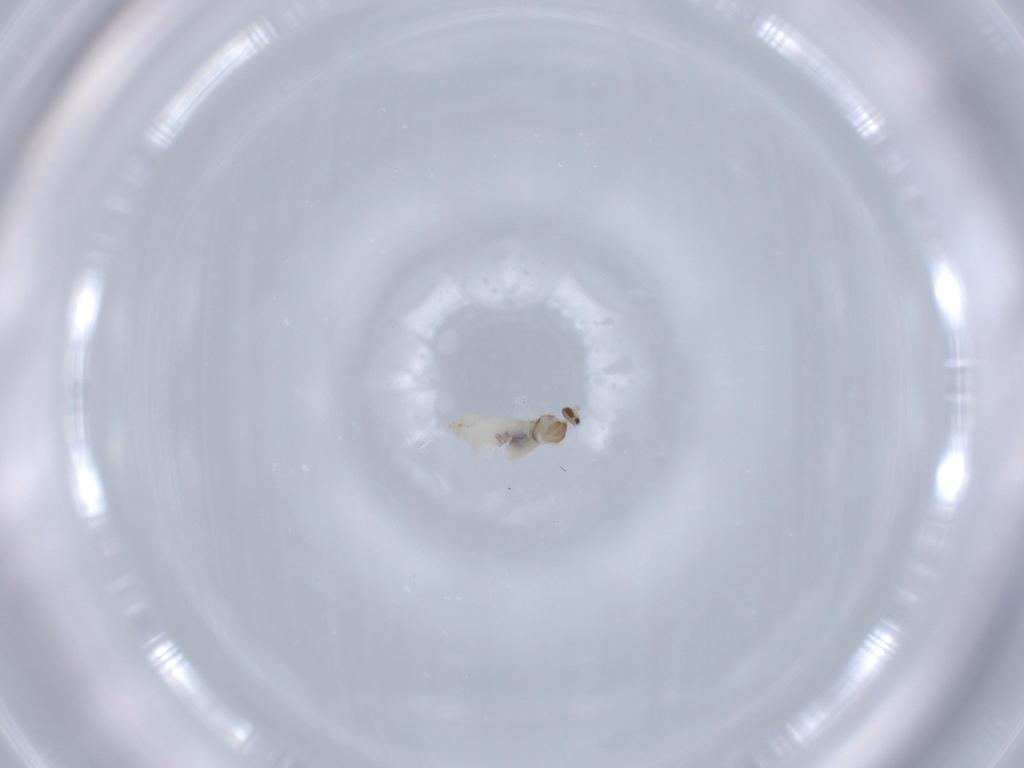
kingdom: Animalia
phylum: Arthropoda
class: Insecta
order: Diptera
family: Cecidomyiidae
